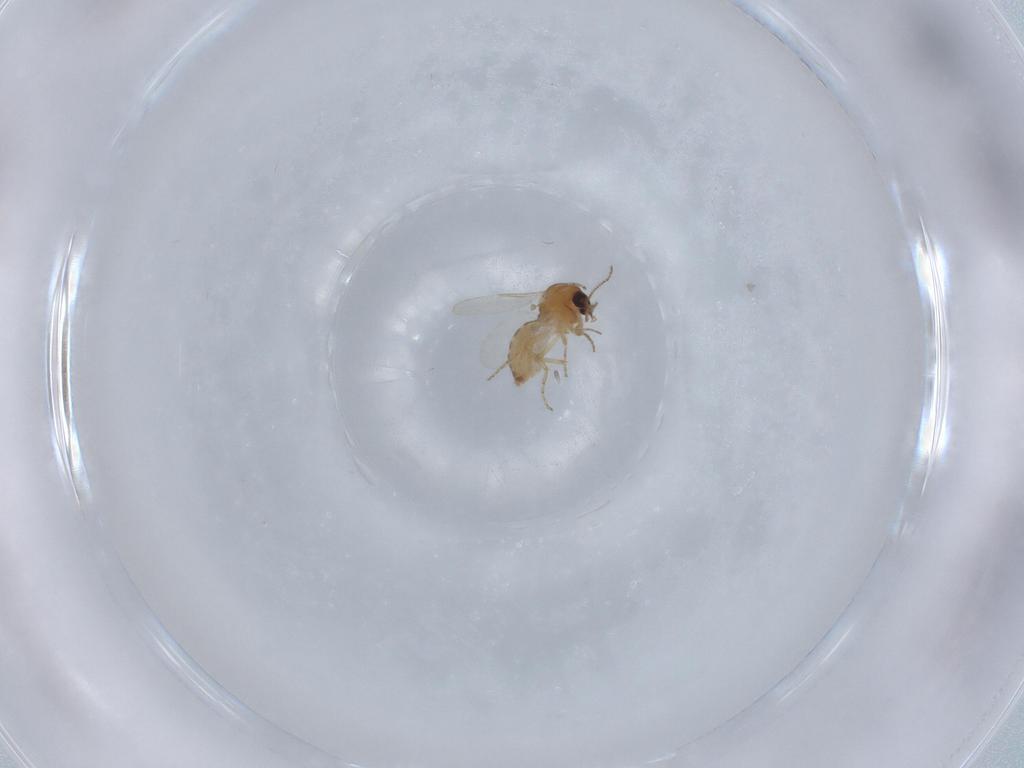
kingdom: Animalia
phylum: Arthropoda
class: Insecta
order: Diptera
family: Ceratopogonidae
